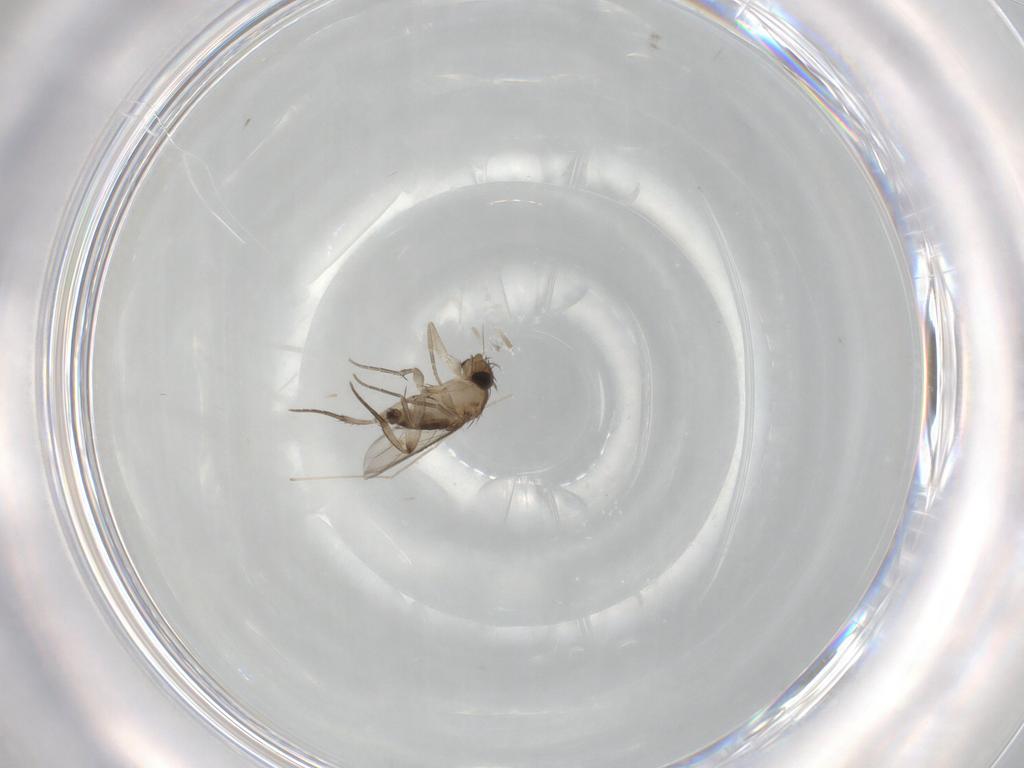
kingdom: Animalia
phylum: Arthropoda
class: Insecta
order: Diptera
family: Phoridae
